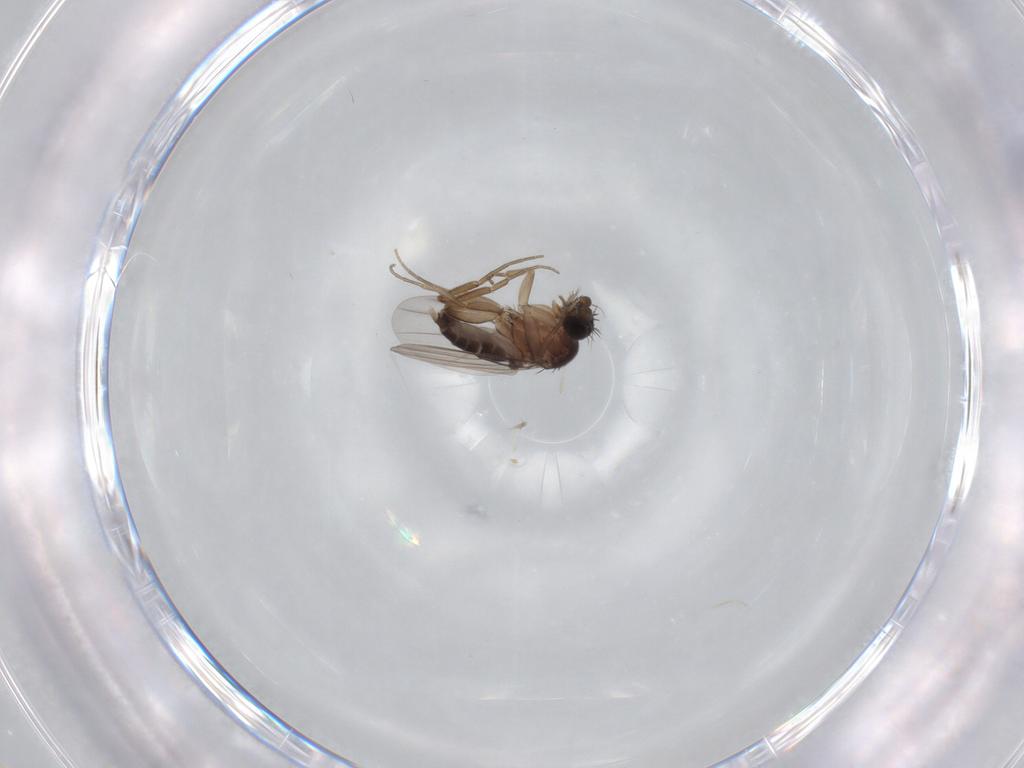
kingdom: Animalia
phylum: Arthropoda
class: Insecta
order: Diptera
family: Phoridae
